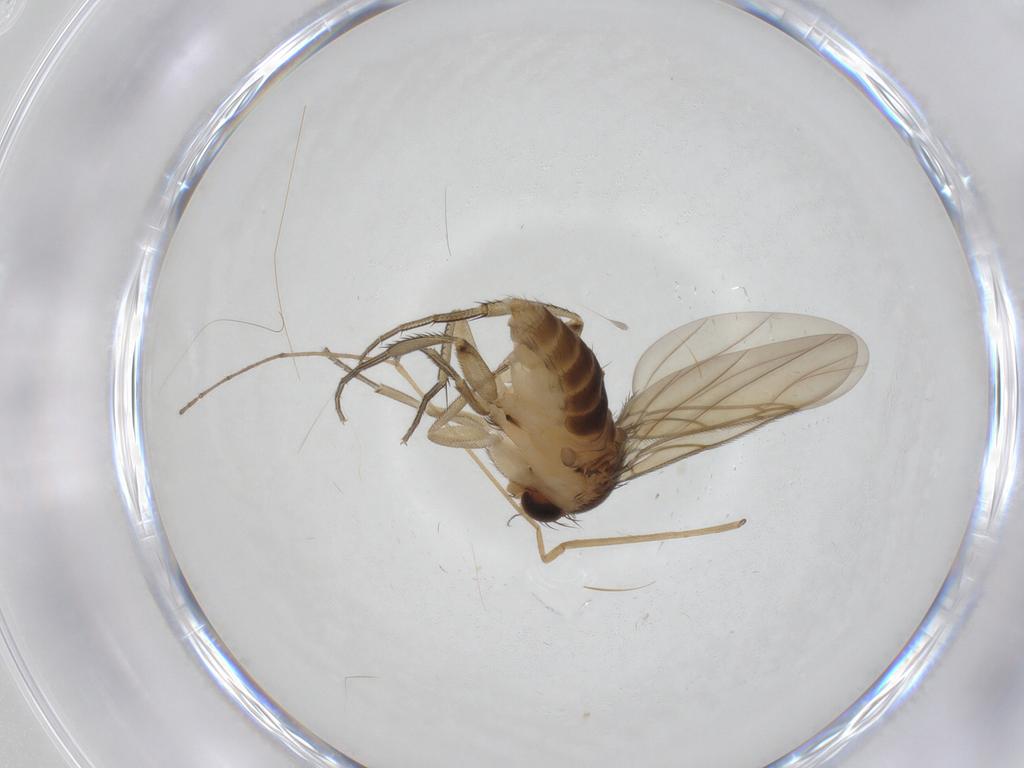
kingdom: Animalia
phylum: Arthropoda
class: Insecta
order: Diptera
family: Phoridae
